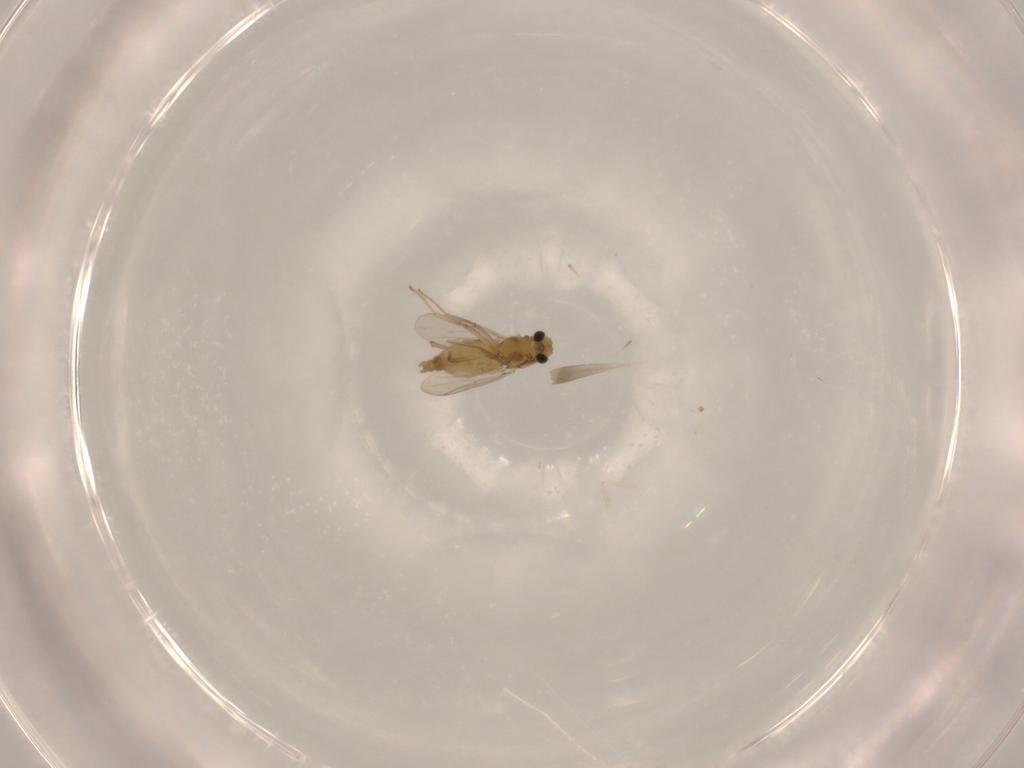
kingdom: Animalia
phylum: Arthropoda
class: Insecta
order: Diptera
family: Chironomidae
